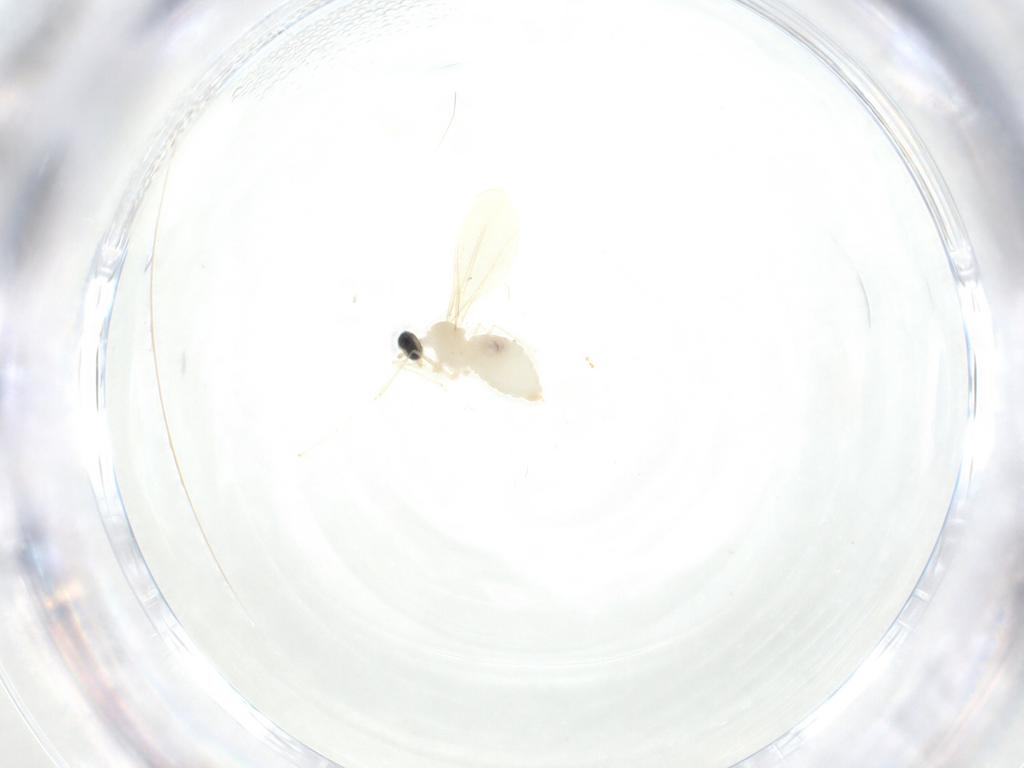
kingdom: Animalia
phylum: Arthropoda
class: Insecta
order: Diptera
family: Cecidomyiidae
